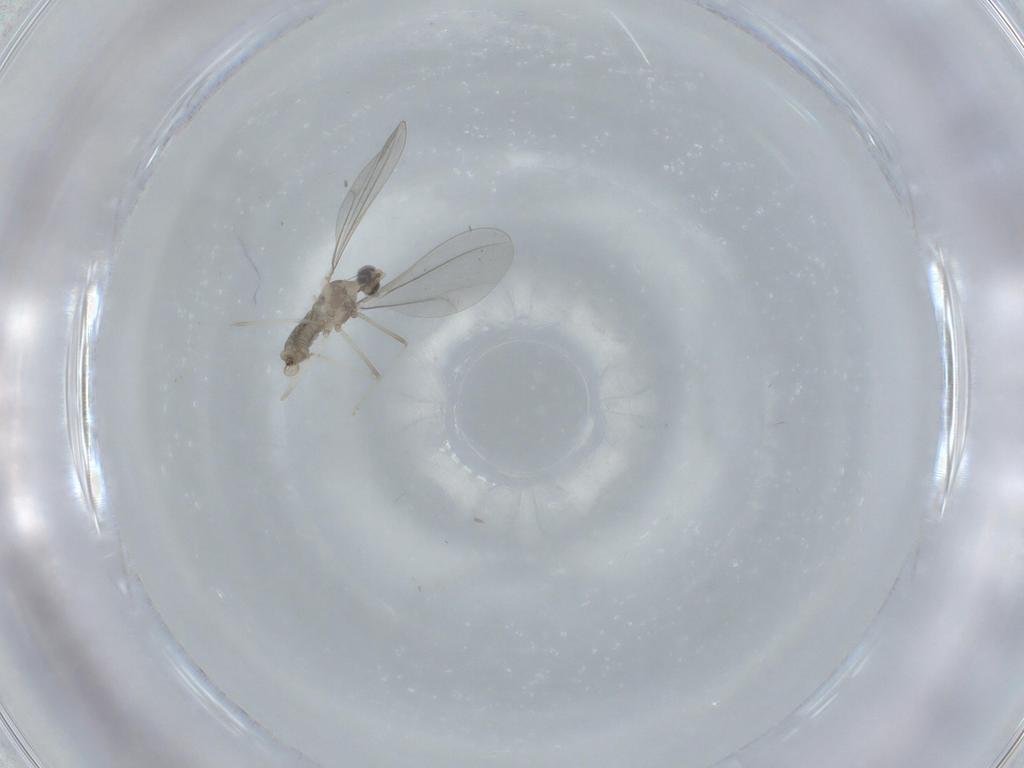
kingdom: Animalia
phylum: Arthropoda
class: Insecta
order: Diptera
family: Cecidomyiidae
